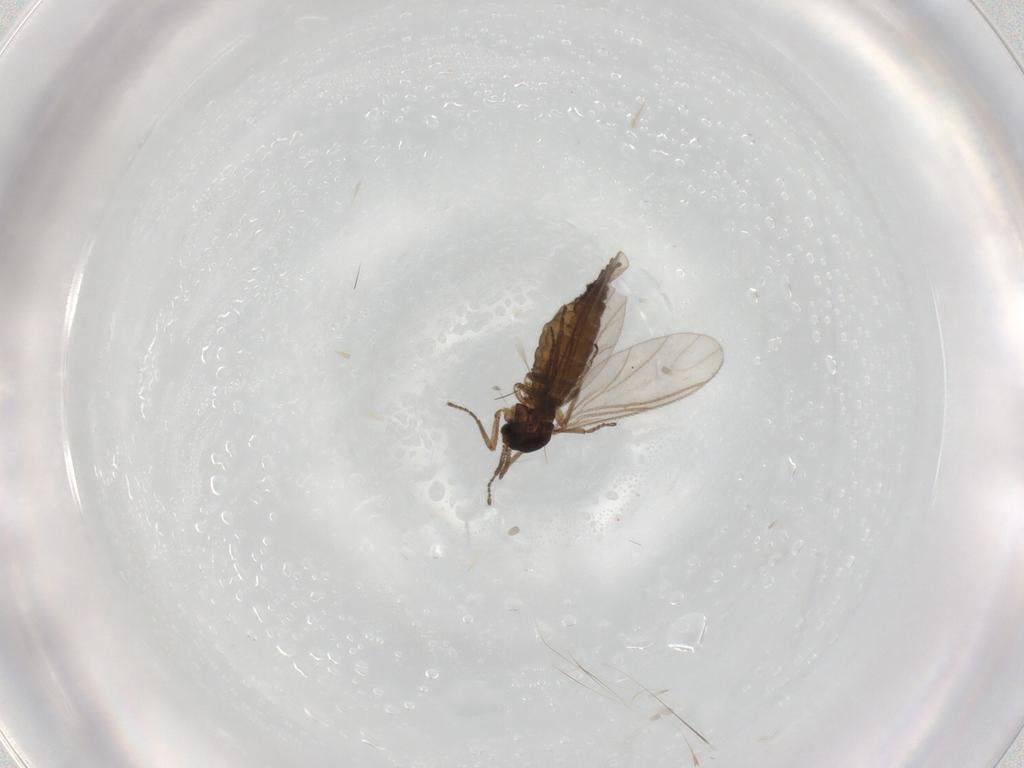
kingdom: Animalia
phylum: Arthropoda
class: Insecta
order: Diptera
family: Sciaridae
